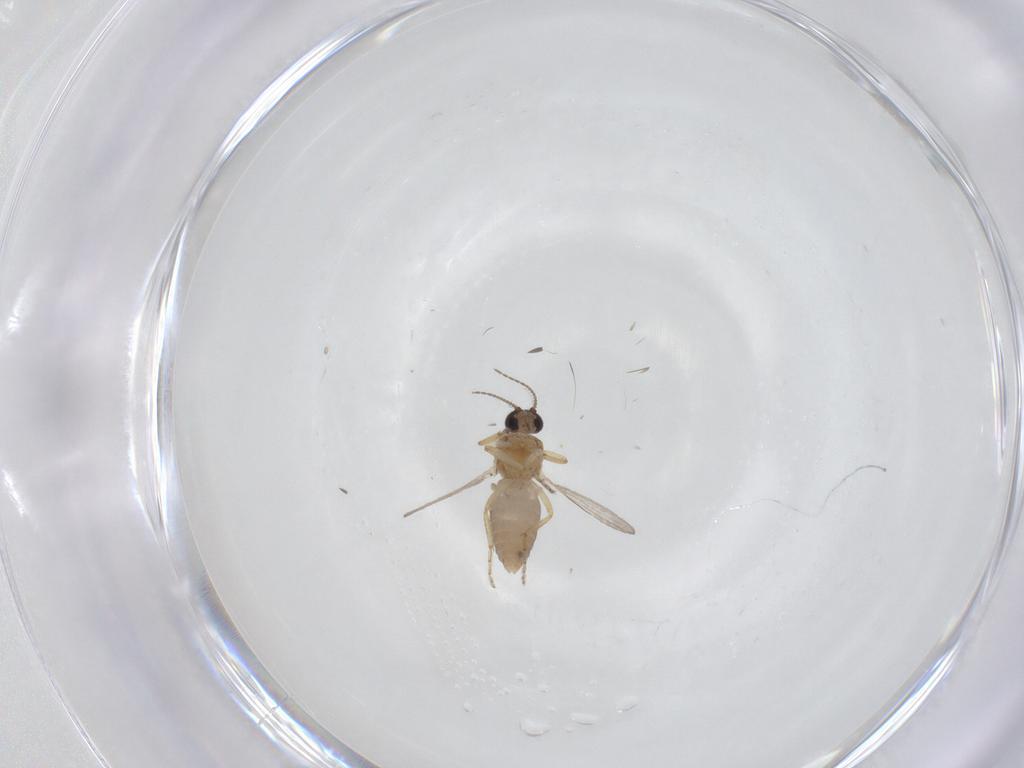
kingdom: Animalia
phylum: Arthropoda
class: Insecta
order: Diptera
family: Ceratopogonidae
